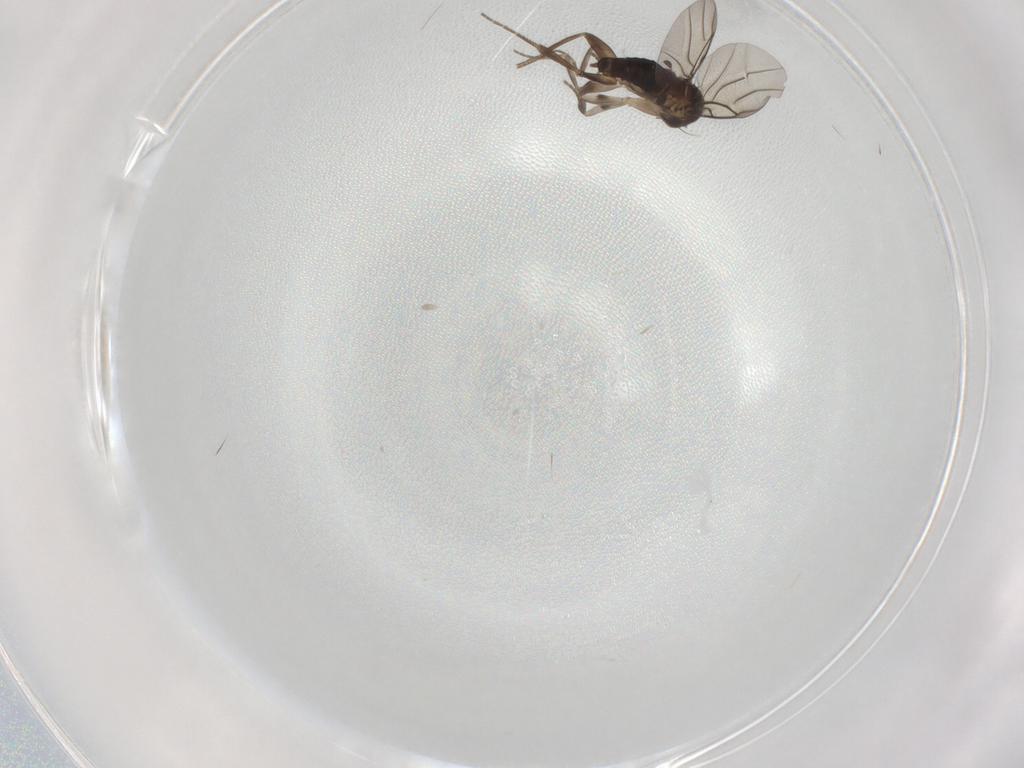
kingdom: Animalia
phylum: Arthropoda
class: Insecta
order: Diptera
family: Phoridae
